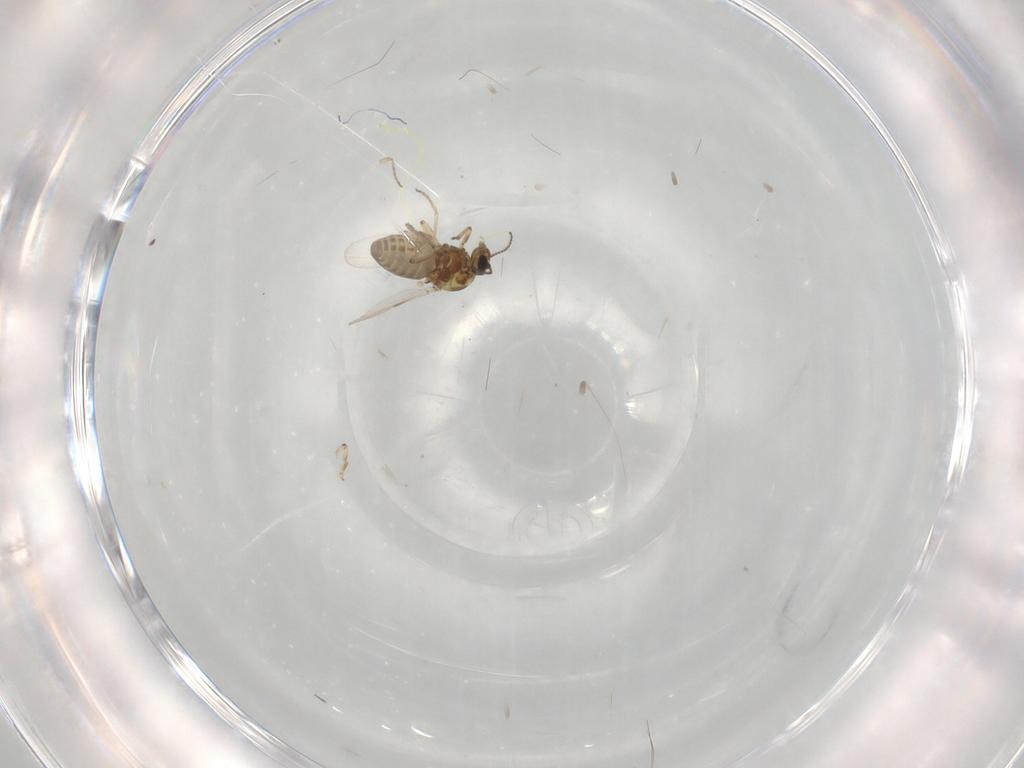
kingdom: Animalia
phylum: Arthropoda
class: Insecta
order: Diptera
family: Ceratopogonidae
